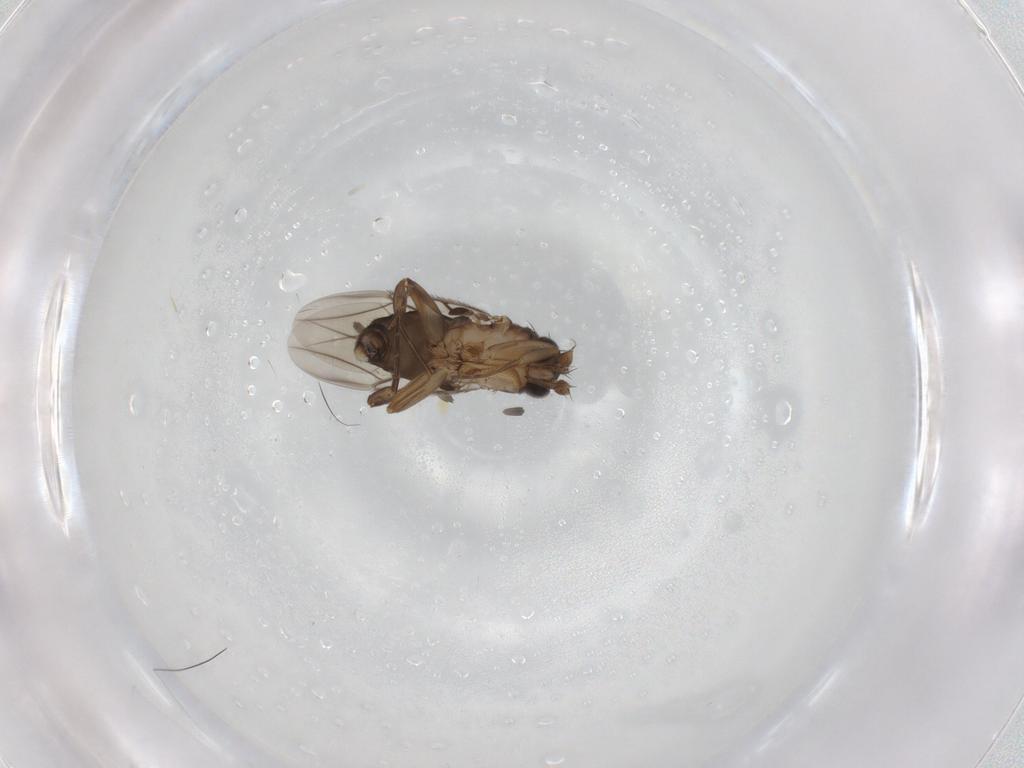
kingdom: Animalia
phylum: Arthropoda
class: Insecta
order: Diptera
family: Phoridae
